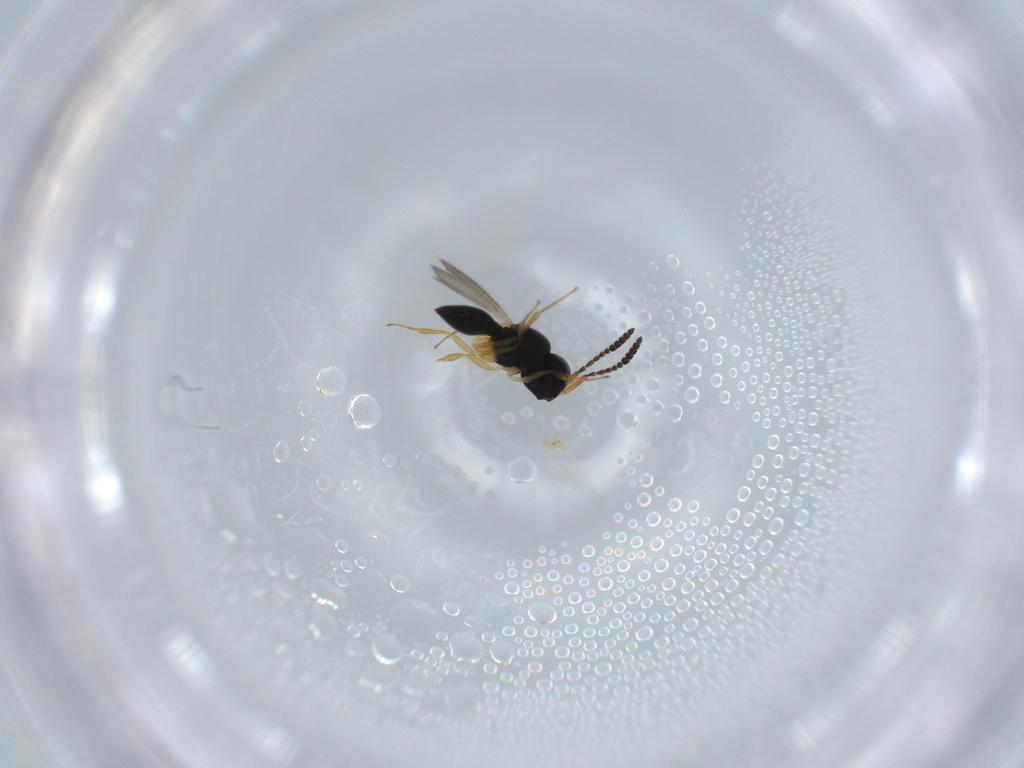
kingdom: Animalia
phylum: Arthropoda
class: Insecta
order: Hymenoptera
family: Scelionidae
